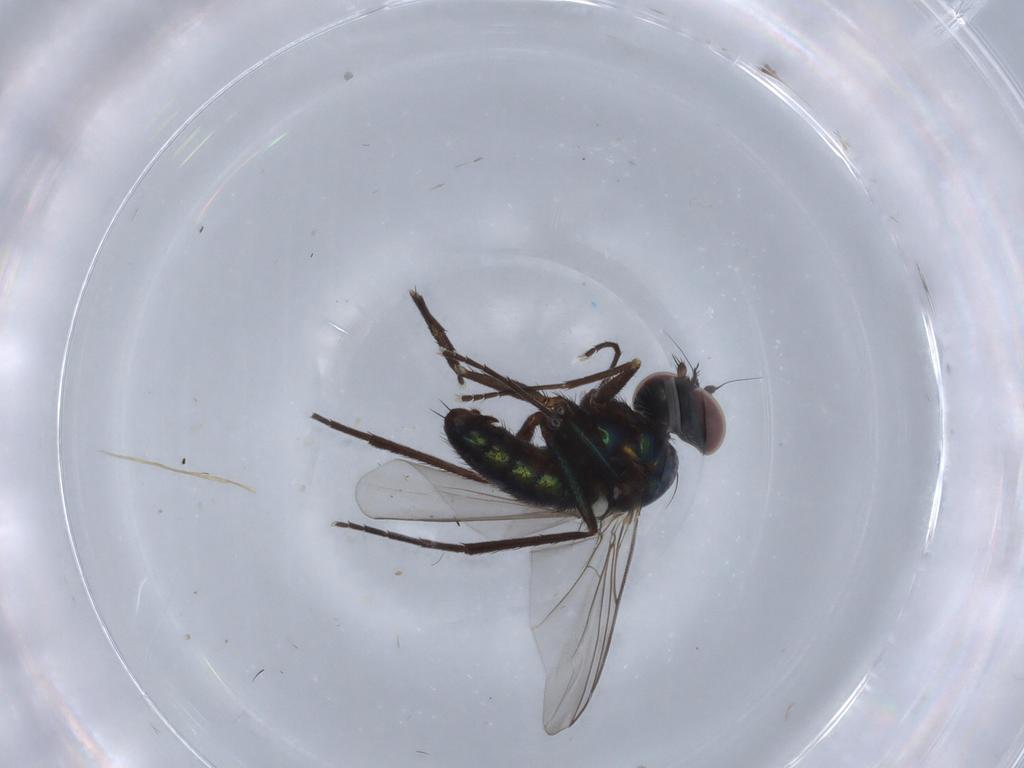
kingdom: Animalia
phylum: Arthropoda
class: Insecta
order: Diptera
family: Dolichopodidae
